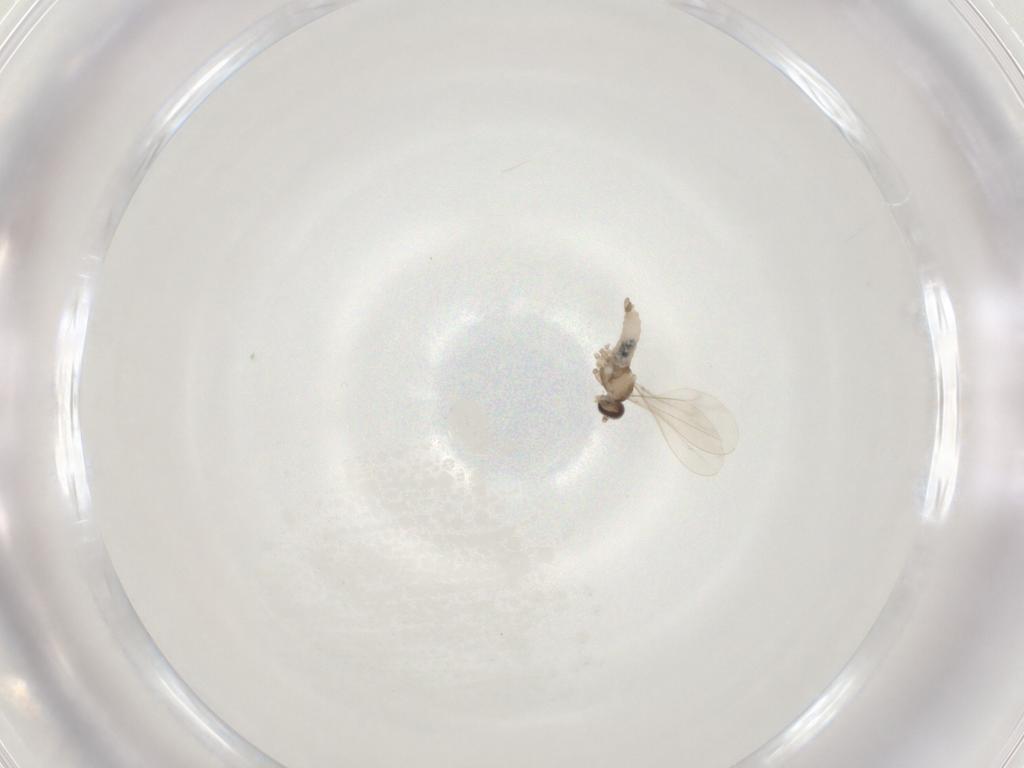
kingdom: Animalia
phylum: Arthropoda
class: Insecta
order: Diptera
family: Cecidomyiidae
